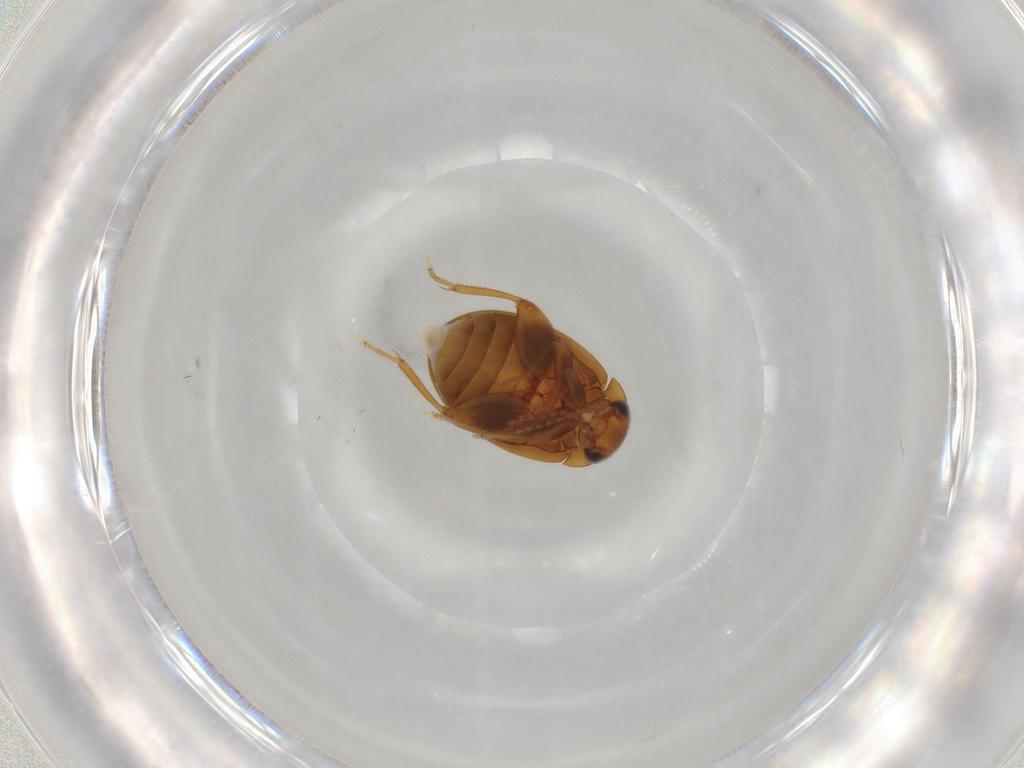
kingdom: Animalia
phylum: Arthropoda
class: Insecta
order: Coleoptera
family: Scirtidae
